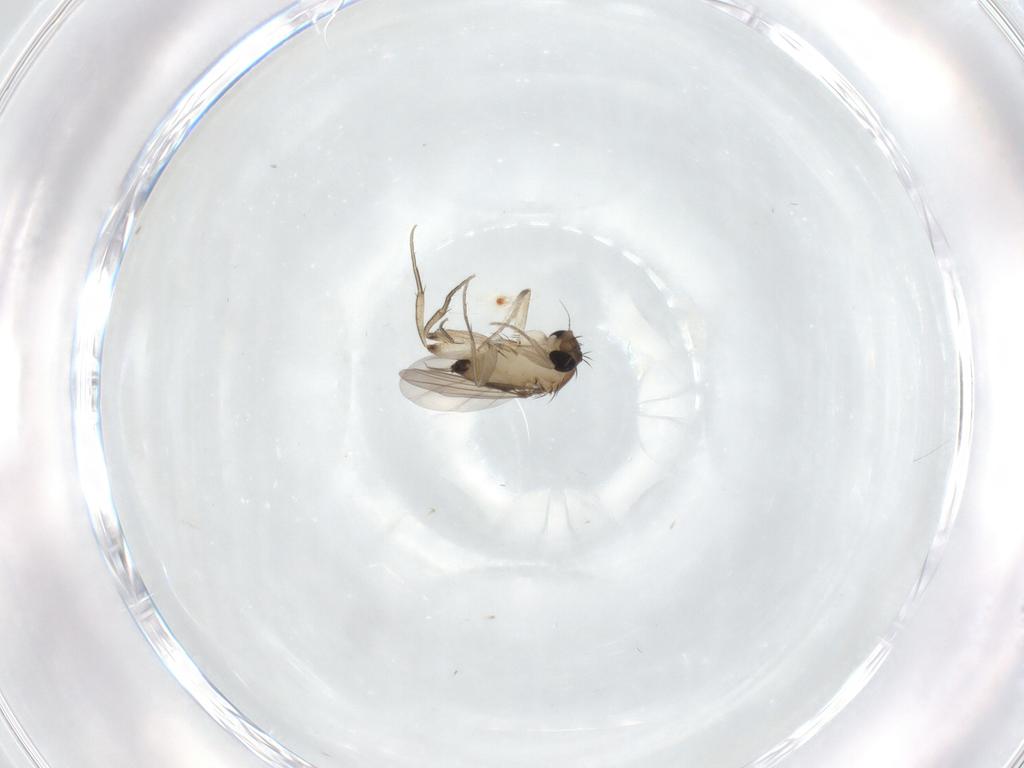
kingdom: Animalia
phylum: Arthropoda
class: Insecta
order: Diptera
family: Phoridae
